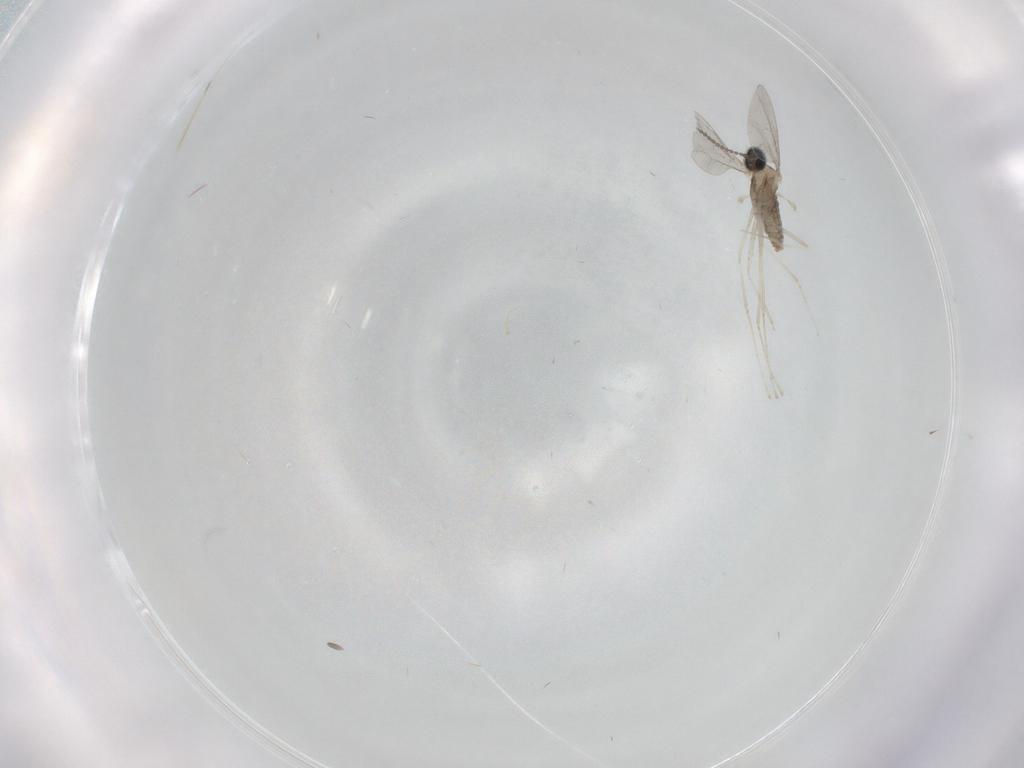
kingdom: Animalia
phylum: Arthropoda
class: Insecta
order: Diptera
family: Cecidomyiidae
